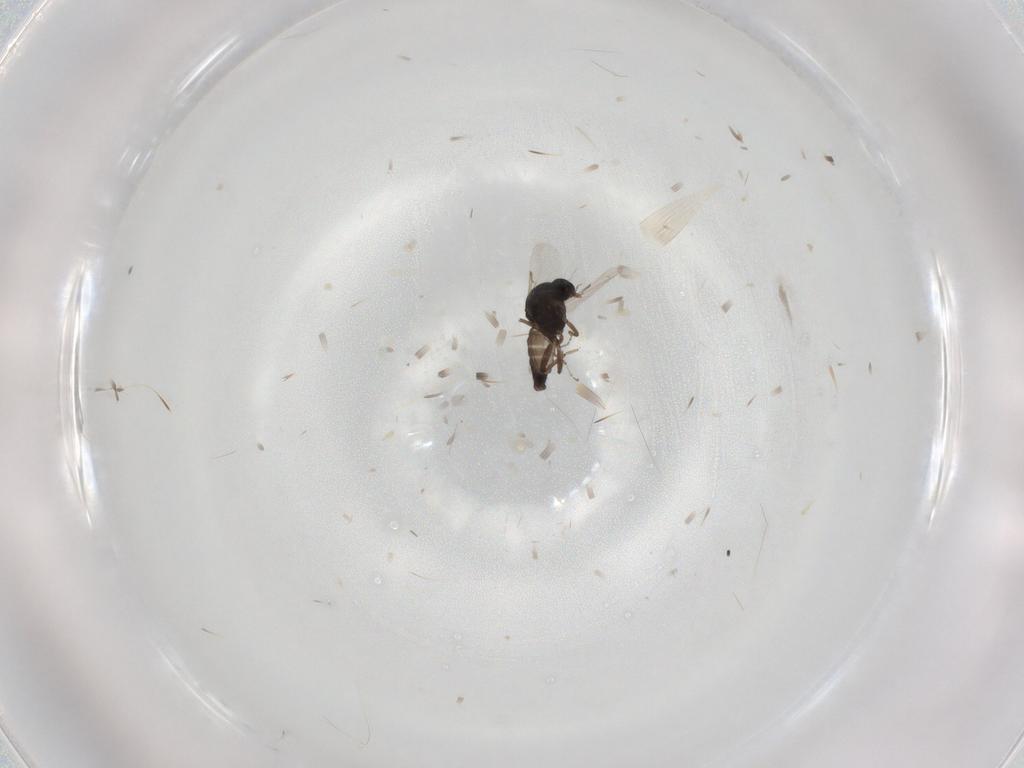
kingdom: Animalia
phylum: Arthropoda
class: Insecta
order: Diptera
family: Ceratopogonidae
